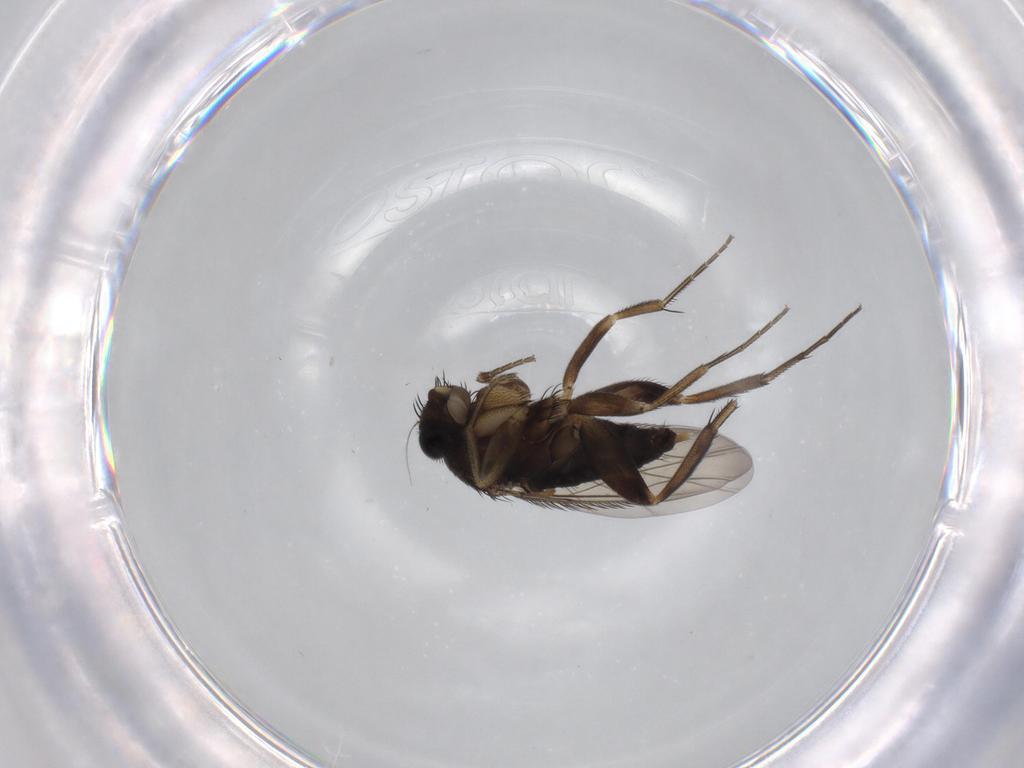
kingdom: Animalia
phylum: Arthropoda
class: Insecta
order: Diptera
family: Phoridae
